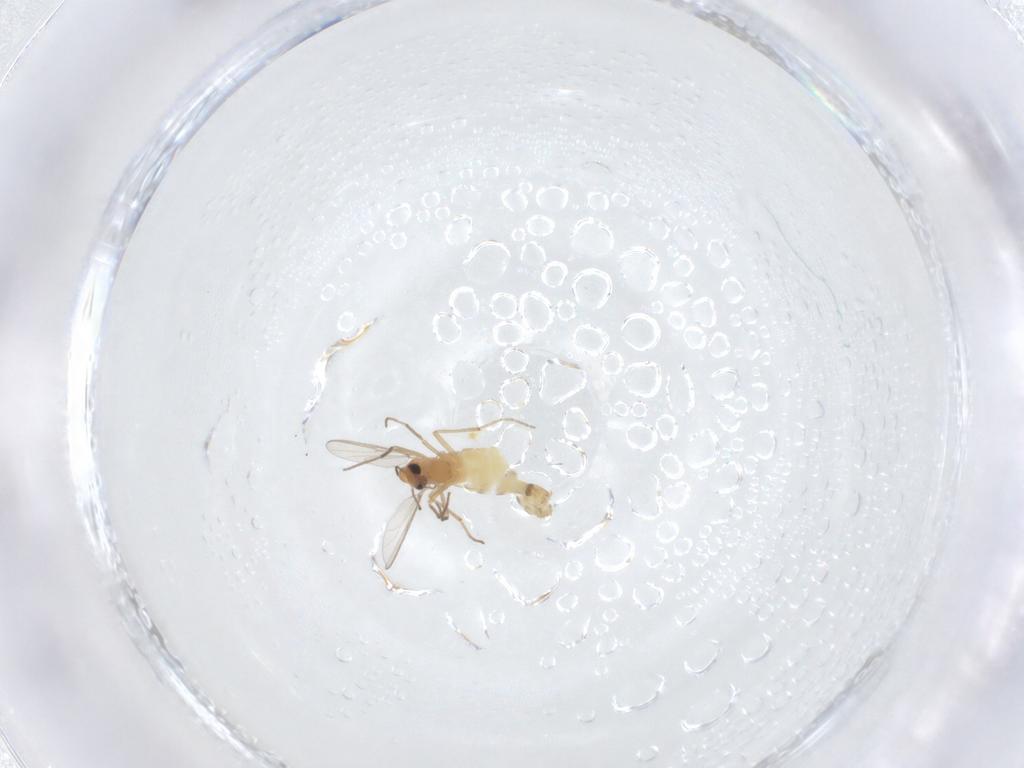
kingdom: Animalia
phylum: Arthropoda
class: Insecta
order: Diptera
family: Chironomidae
